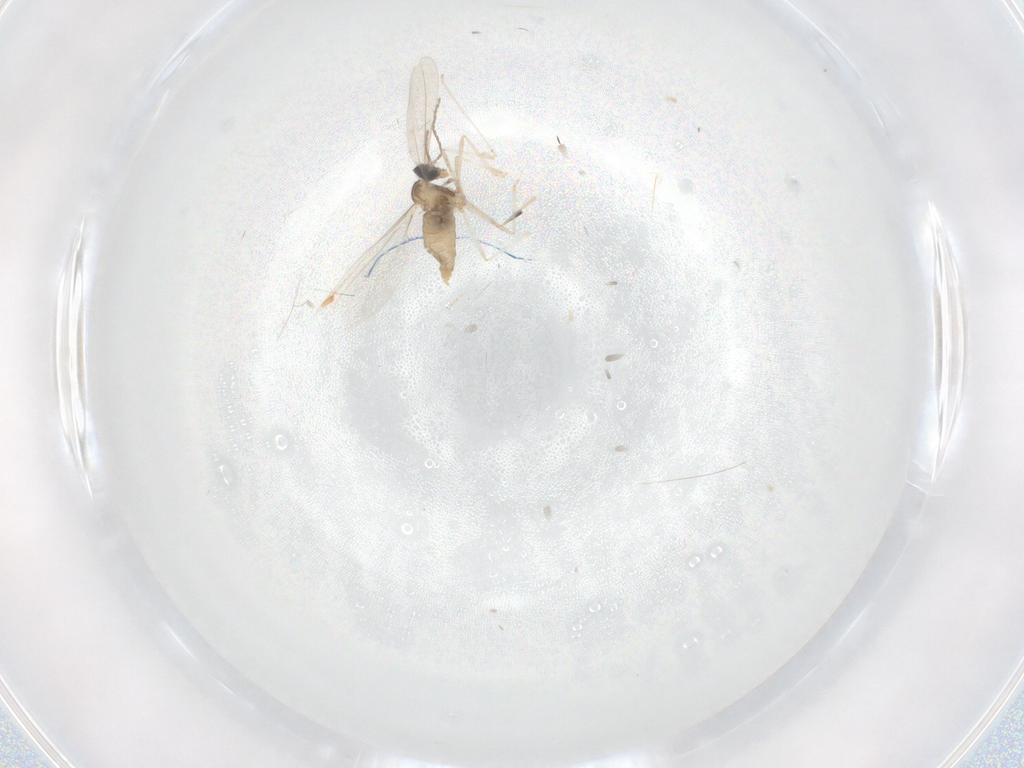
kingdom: Animalia
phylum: Arthropoda
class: Insecta
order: Diptera
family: Cecidomyiidae
